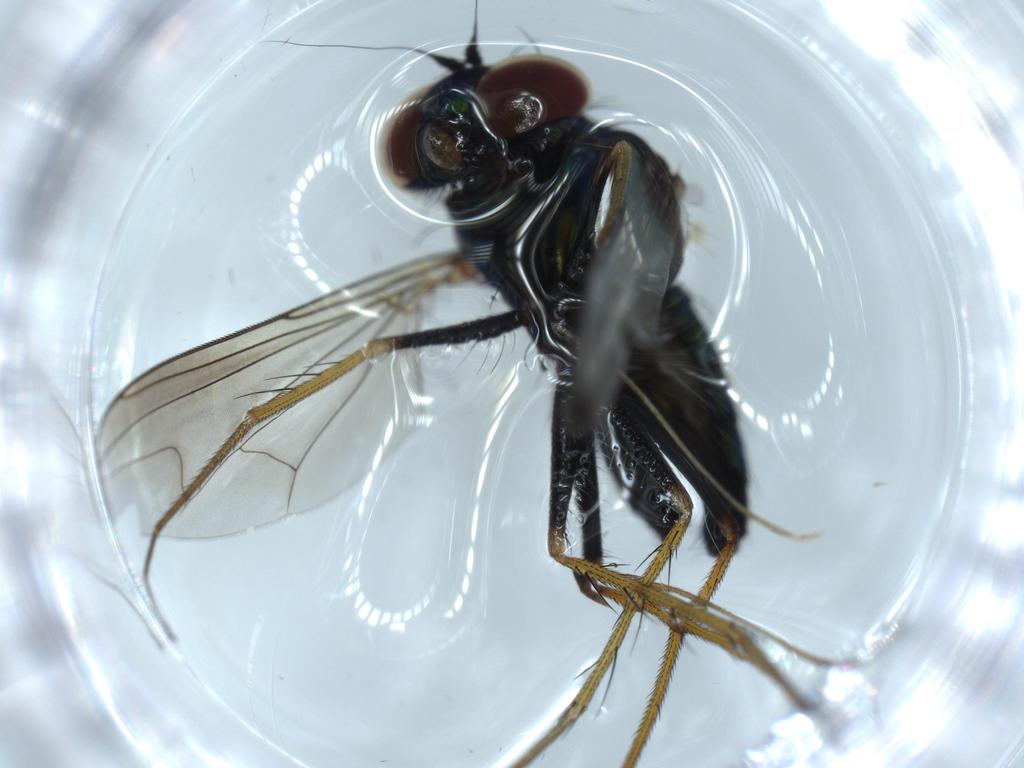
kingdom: Animalia
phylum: Arthropoda
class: Insecta
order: Diptera
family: Dolichopodidae
